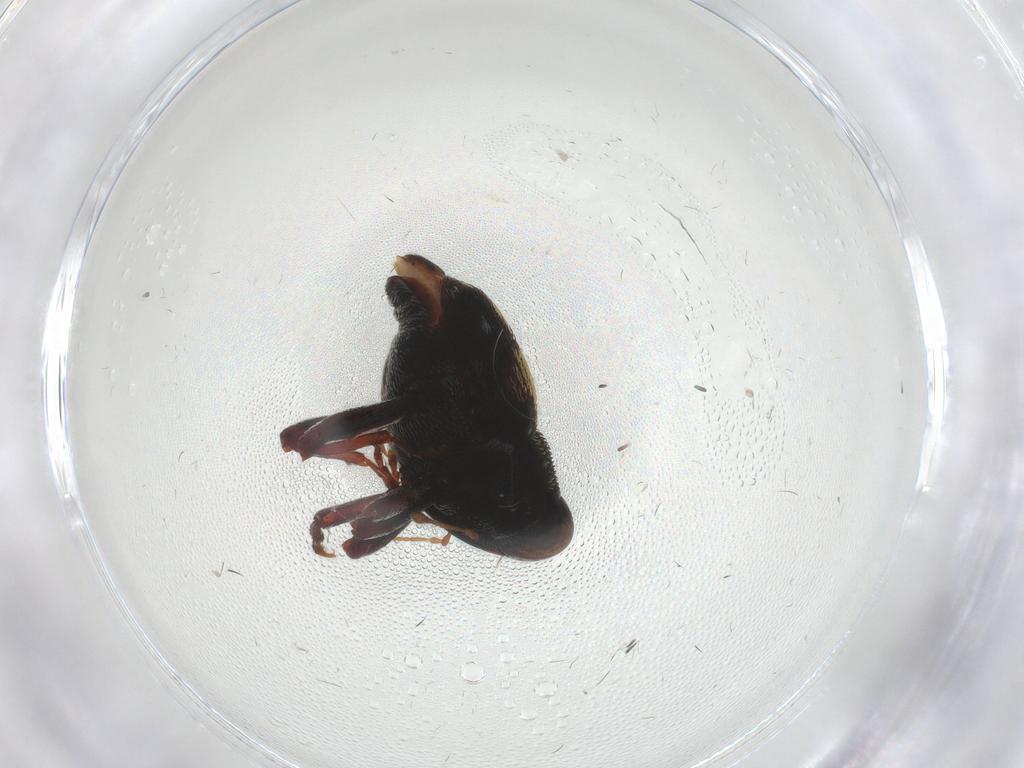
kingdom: Animalia
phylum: Arthropoda
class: Insecta
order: Coleoptera
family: Curculionidae
